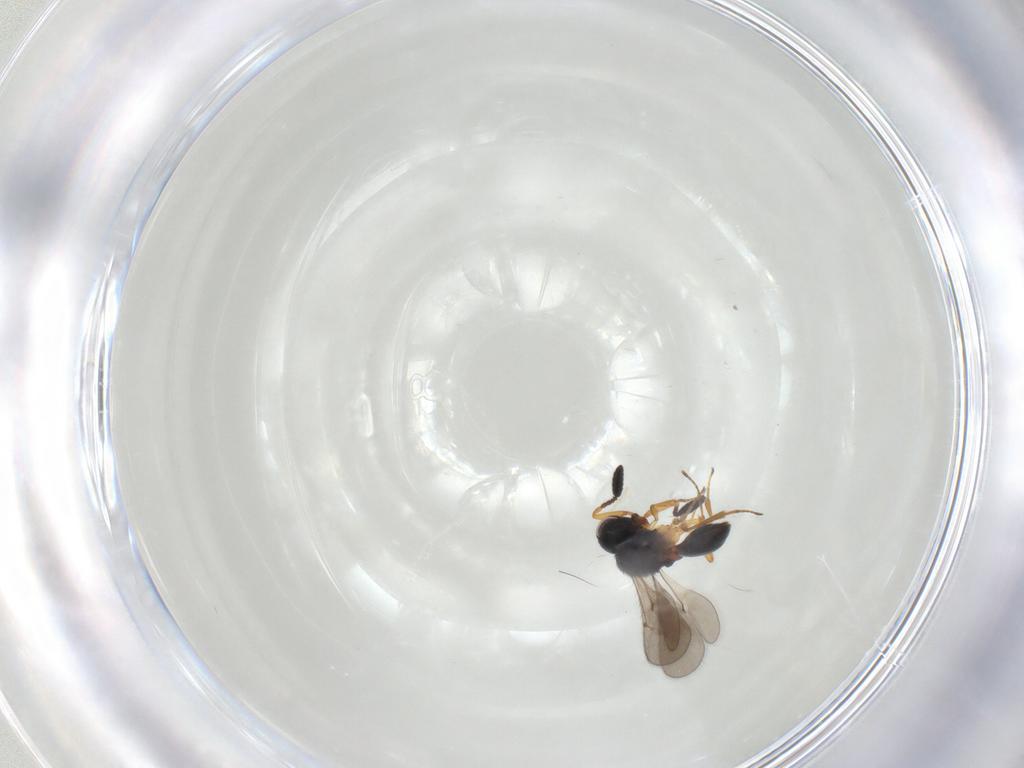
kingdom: Animalia
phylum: Arthropoda
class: Insecta
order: Hymenoptera
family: Scelionidae
